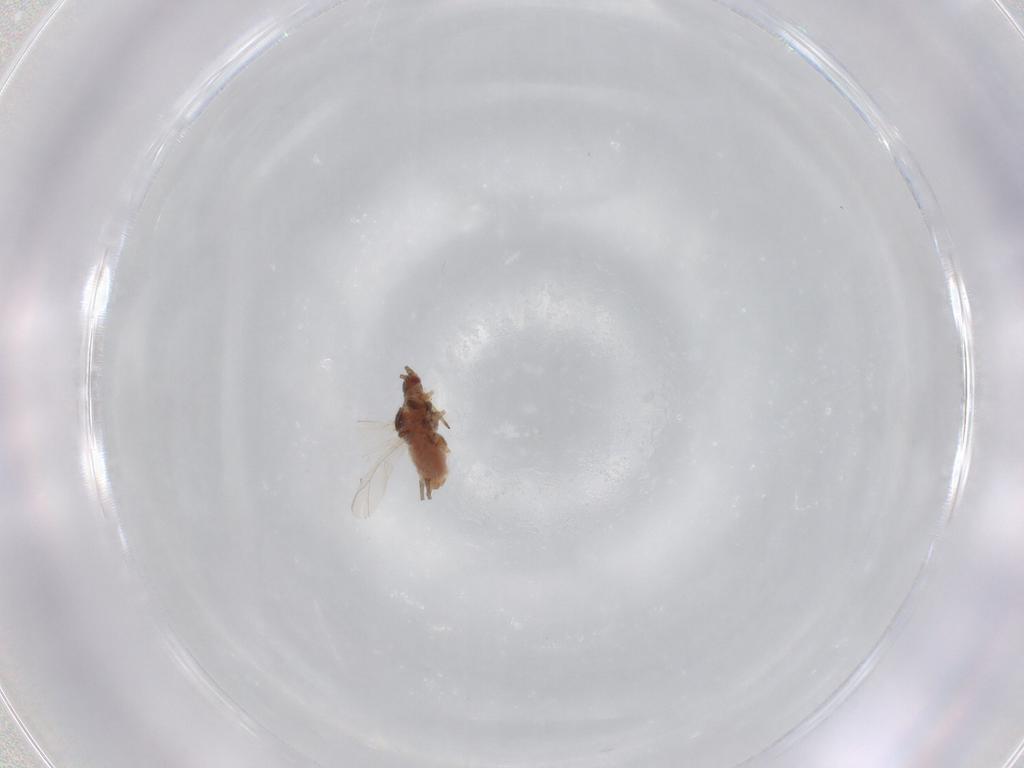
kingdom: Animalia
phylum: Arthropoda
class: Insecta
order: Hemiptera
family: Aphididae
